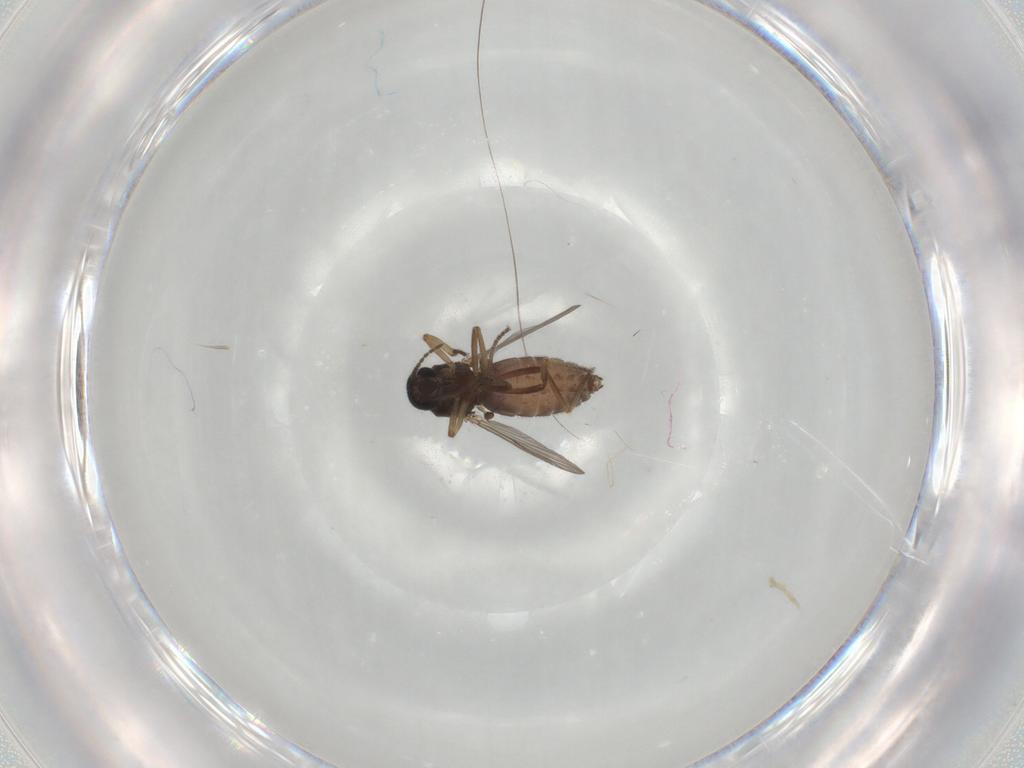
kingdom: Animalia
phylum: Arthropoda
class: Insecta
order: Diptera
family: Ceratopogonidae
